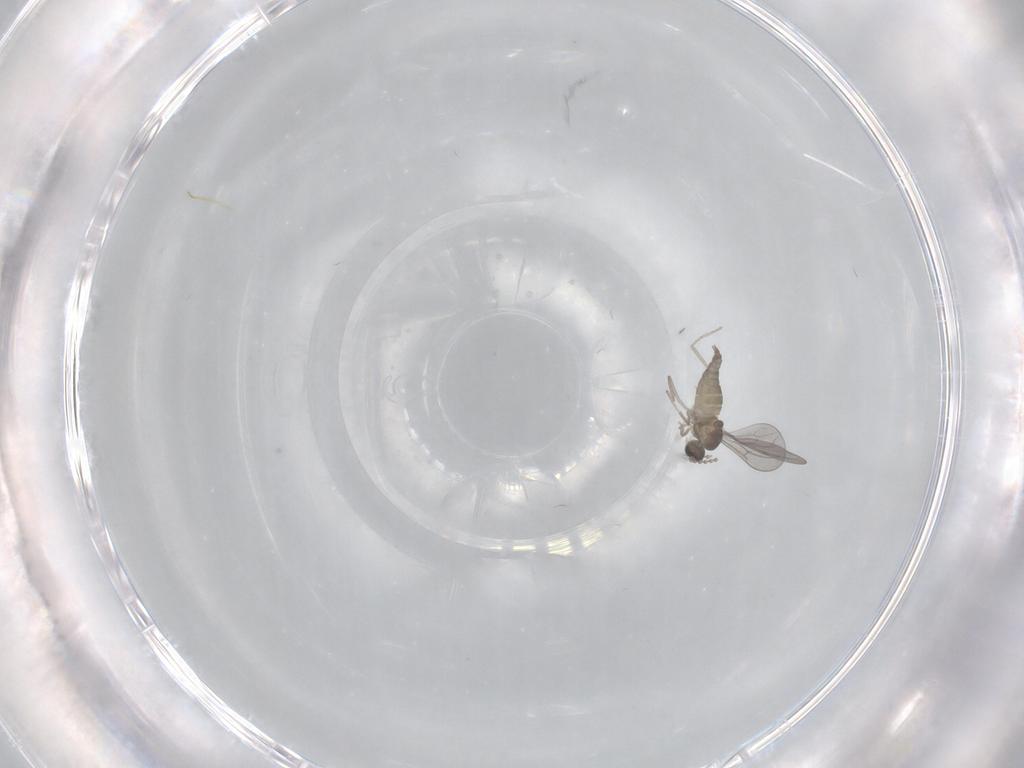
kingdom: Animalia
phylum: Arthropoda
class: Insecta
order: Diptera
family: Cecidomyiidae
